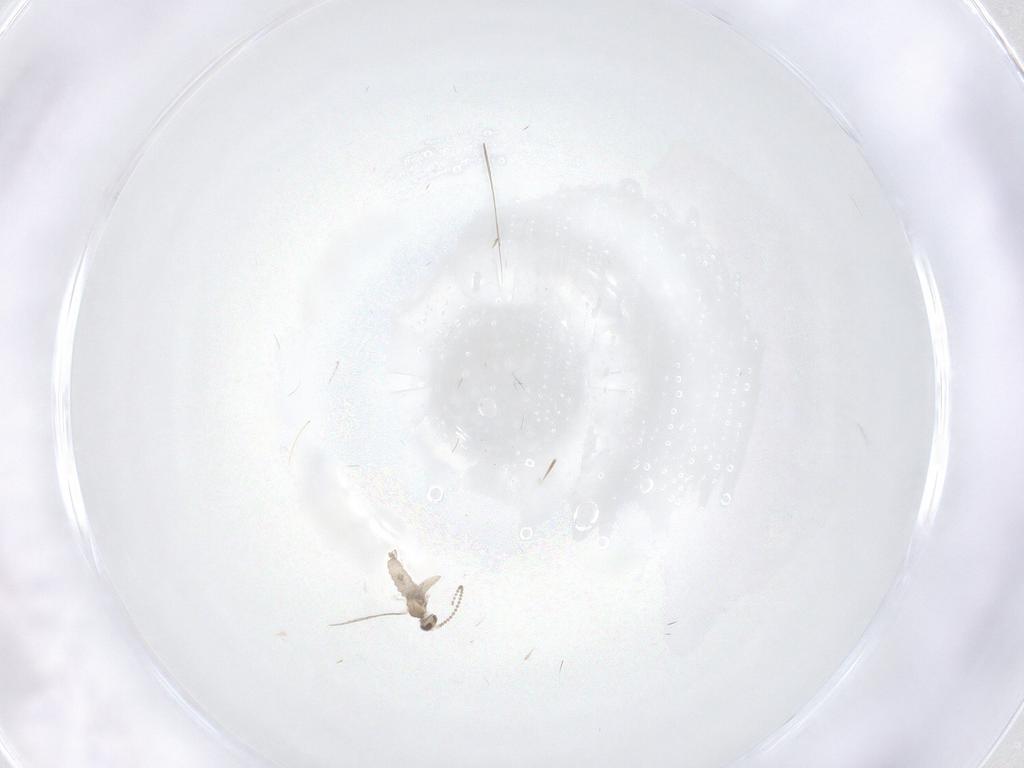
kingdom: Animalia
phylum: Arthropoda
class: Insecta
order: Diptera
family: Cecidomyiidae
